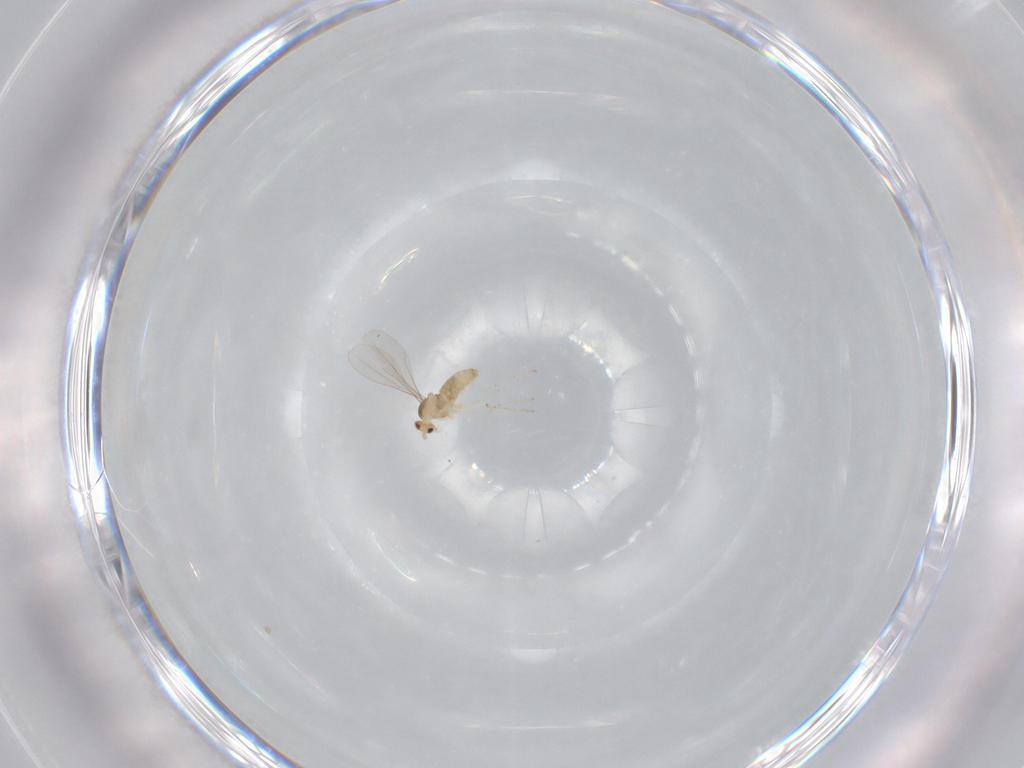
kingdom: Animalia
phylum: Arthropoda
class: Insecta
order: Diptera
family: Cecidomyiidae
